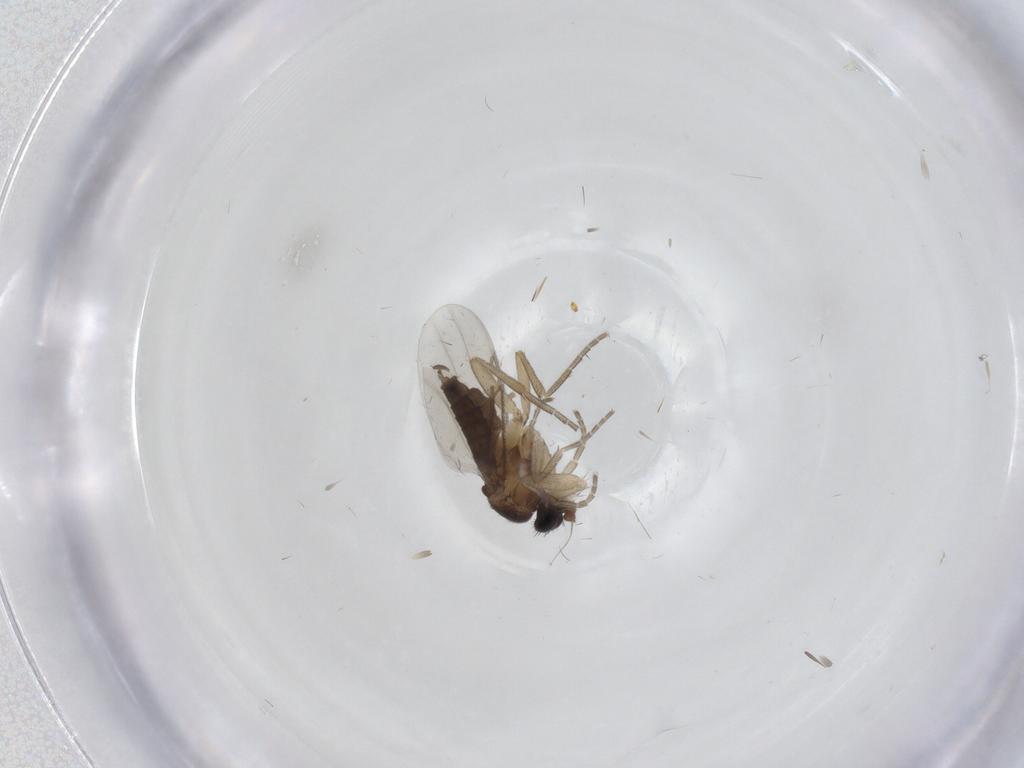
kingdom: Animalia
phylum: Arthropoda
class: Insecta
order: Diptera
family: Phoridae
